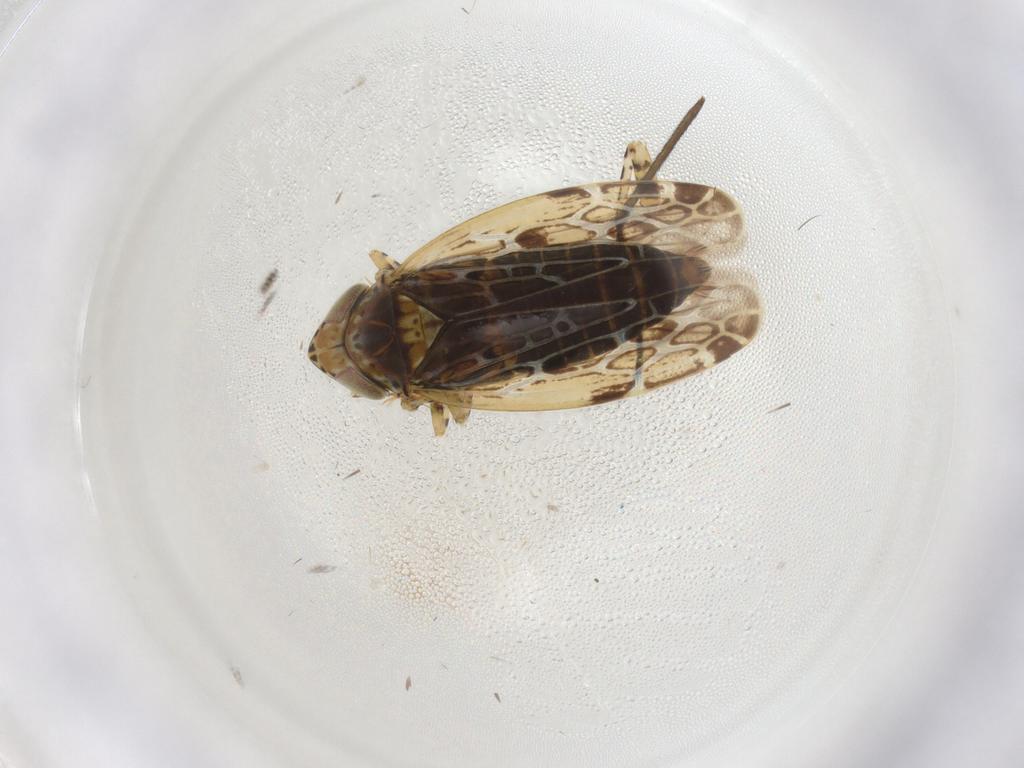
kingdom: Animalia
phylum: Arthropoda
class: Insecta
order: Hemiptera
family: Cicadellidae
